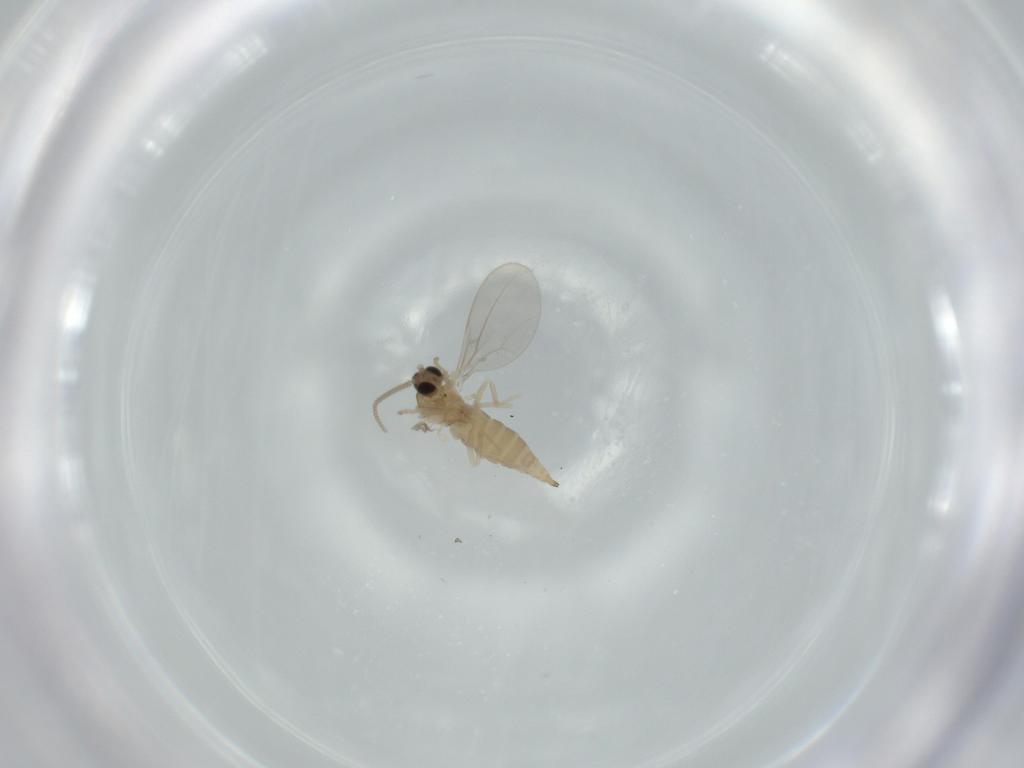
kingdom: Animalia
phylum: Arthropoda
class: Insecta
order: Diptera
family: Cecidomyiidae
